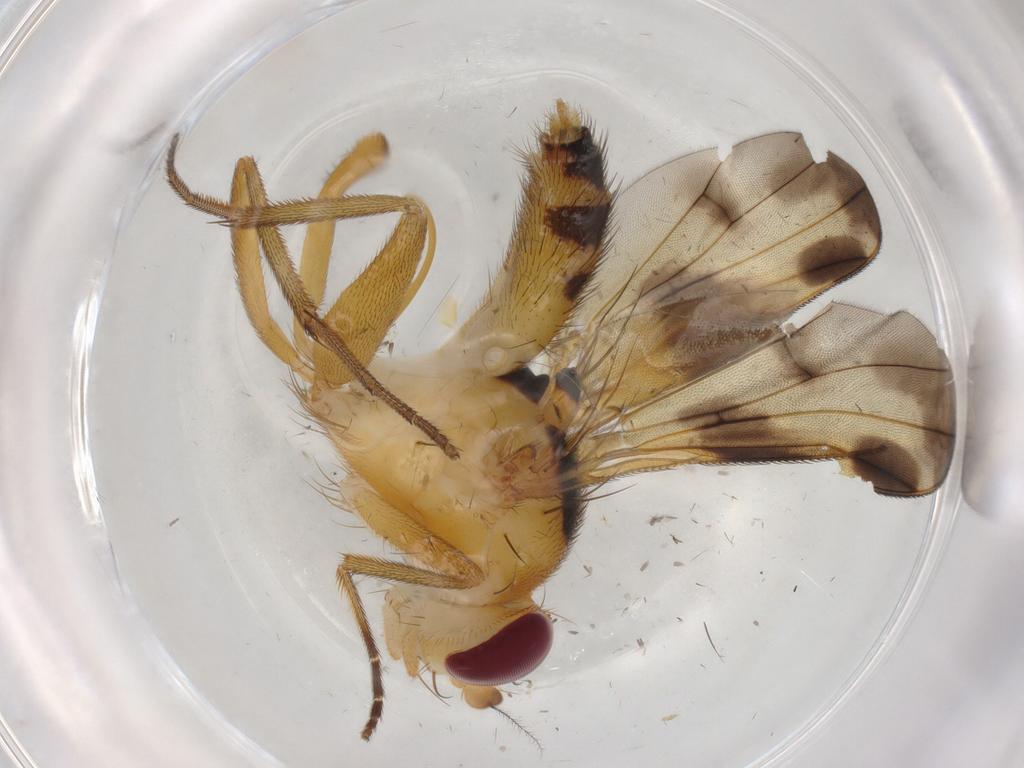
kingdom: Animalia
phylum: Arthropoda
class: Insecta
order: Diptera
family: Clusiidae
